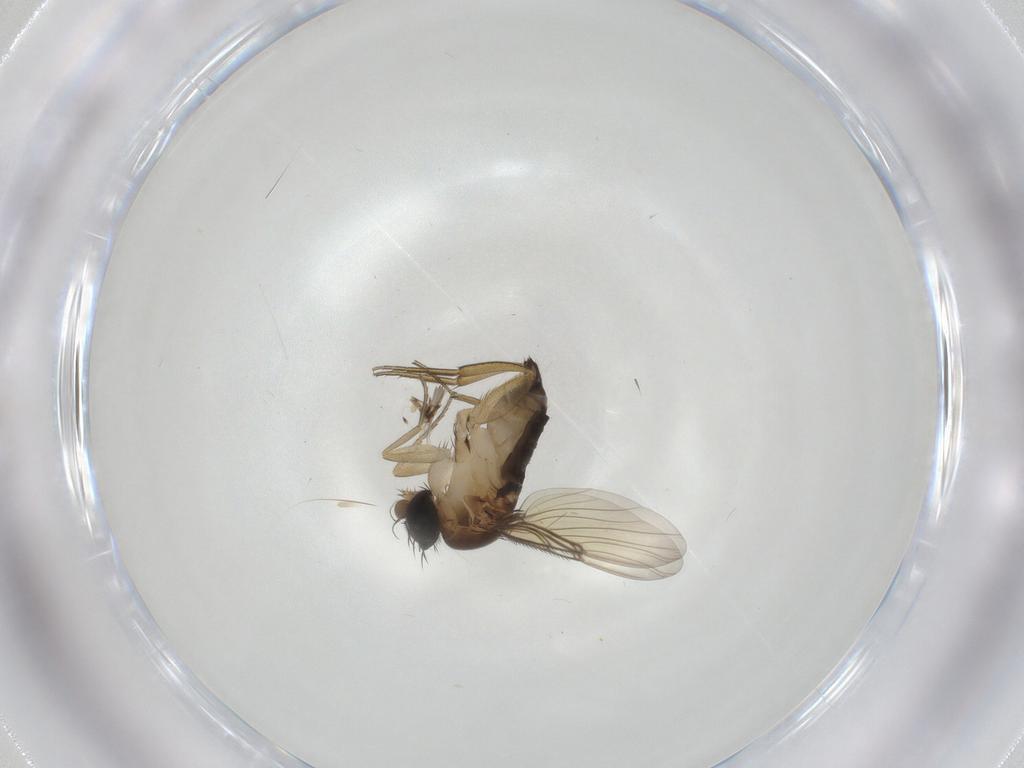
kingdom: Animalia
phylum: Arthropoda
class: Insecta
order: Diptera
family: Phoridae
